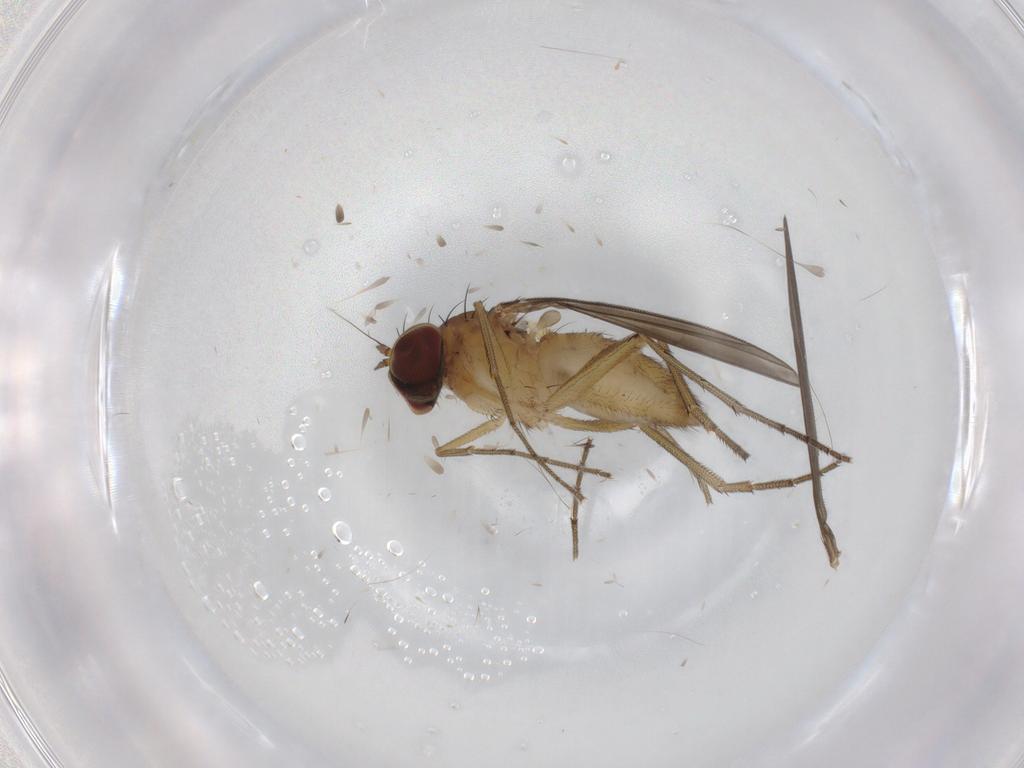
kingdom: Animalia
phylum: Arthropoda
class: Insecta
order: Diptera
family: Dolichopodidae
